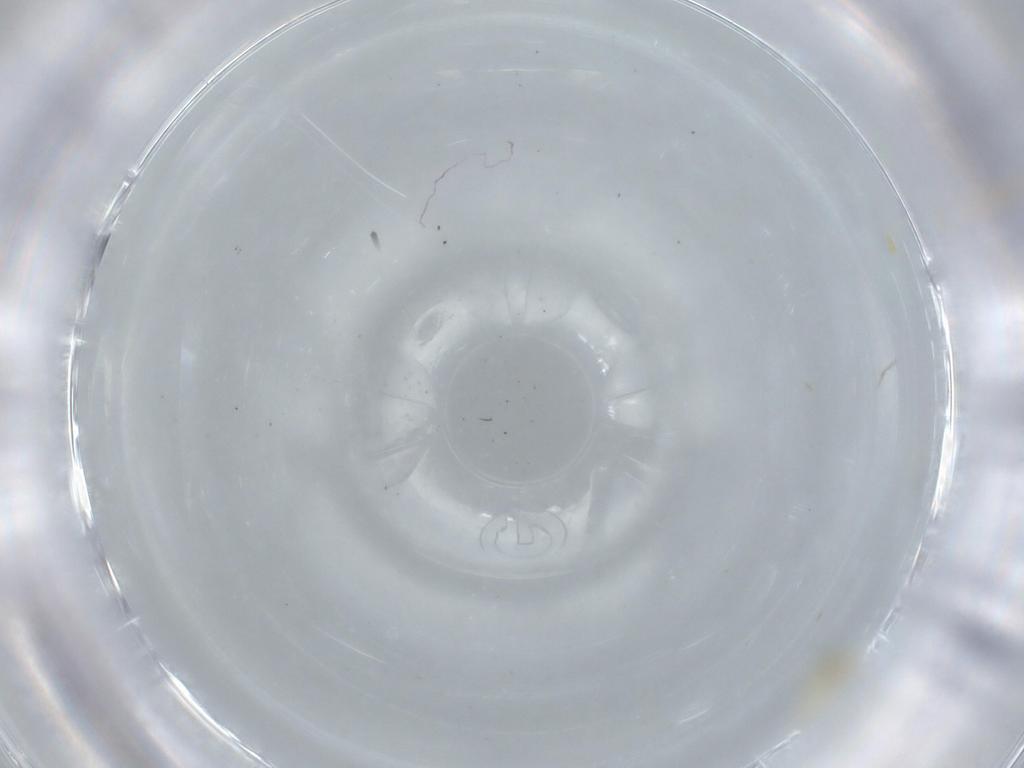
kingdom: Animalia
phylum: Arthropoda
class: Insecta
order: Hemiptera
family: Aleyrodidae
